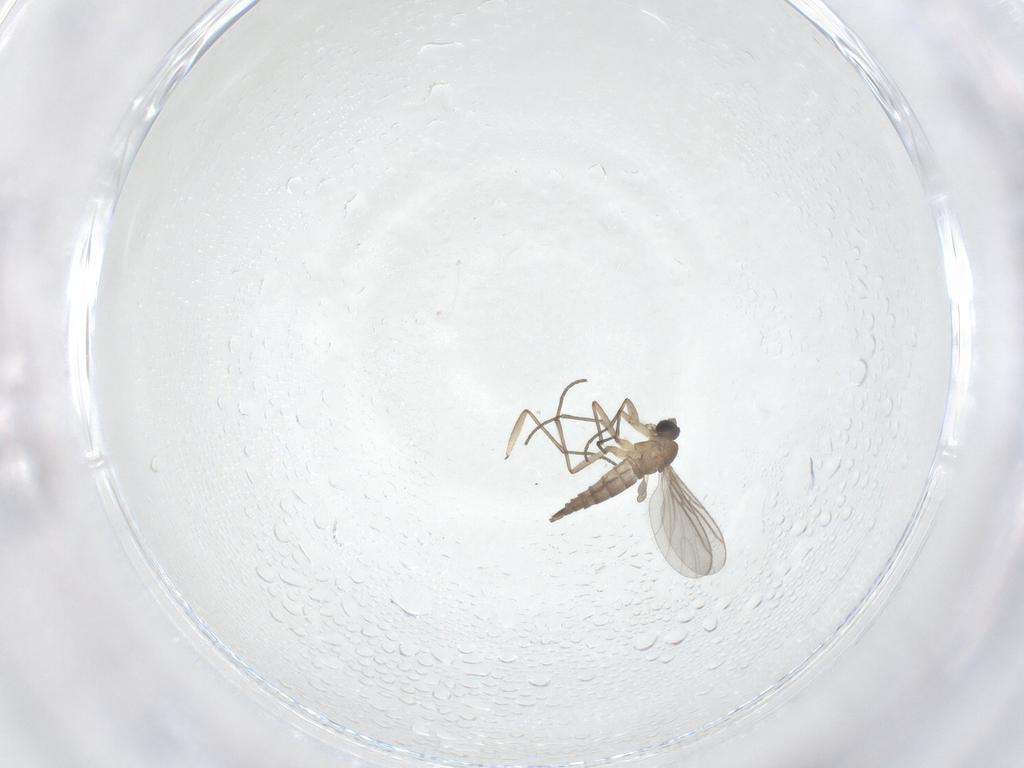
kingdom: Animalia
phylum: Arthropoda
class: Insecta
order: Diptera
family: Sciaridae
